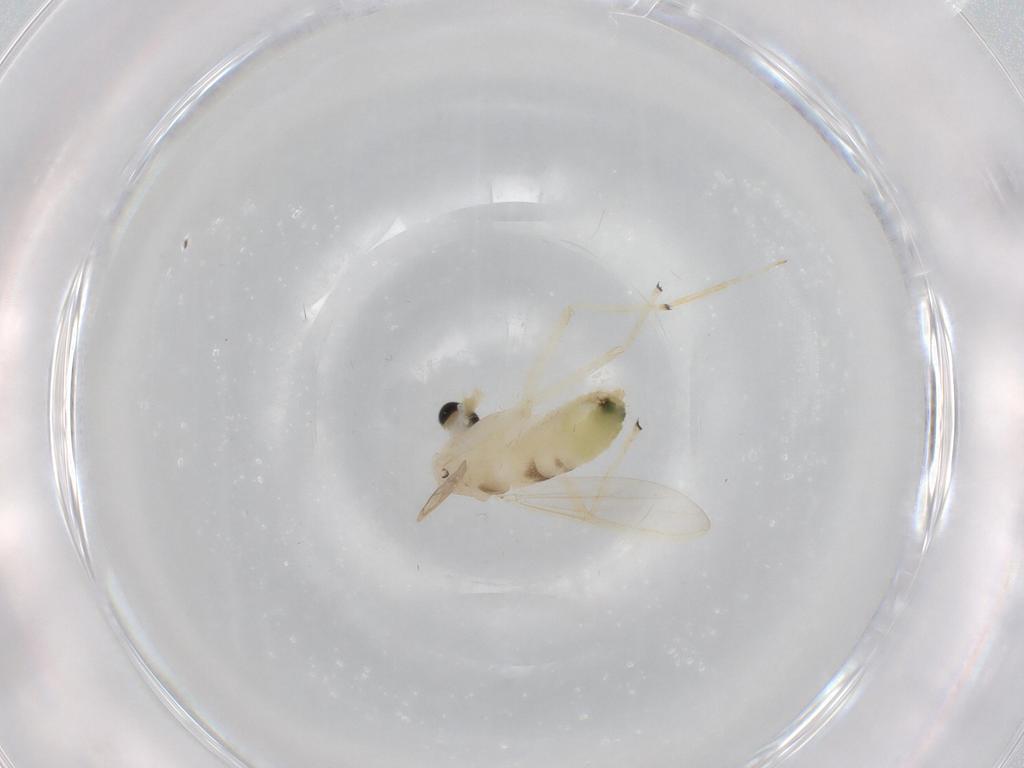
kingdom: Animalia
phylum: Arthropoda
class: Insecta
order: Diptera
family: Chironomidae
